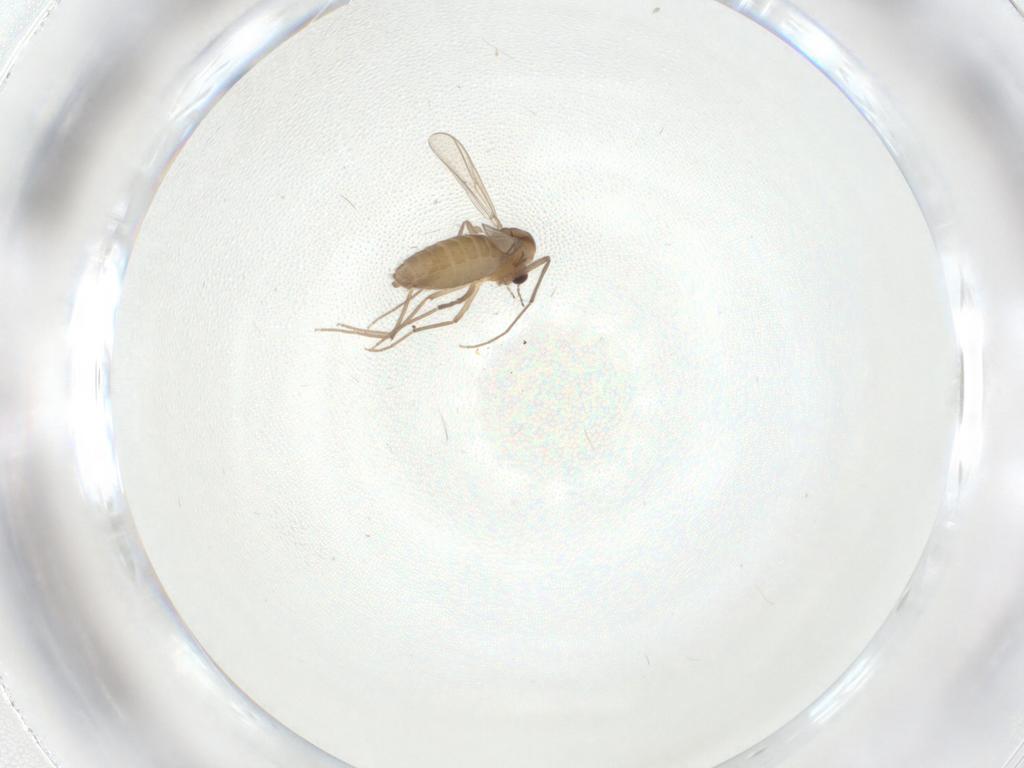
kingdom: Animalia
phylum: Arthropoda
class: Insecta
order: Diptera
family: Chironomidae
